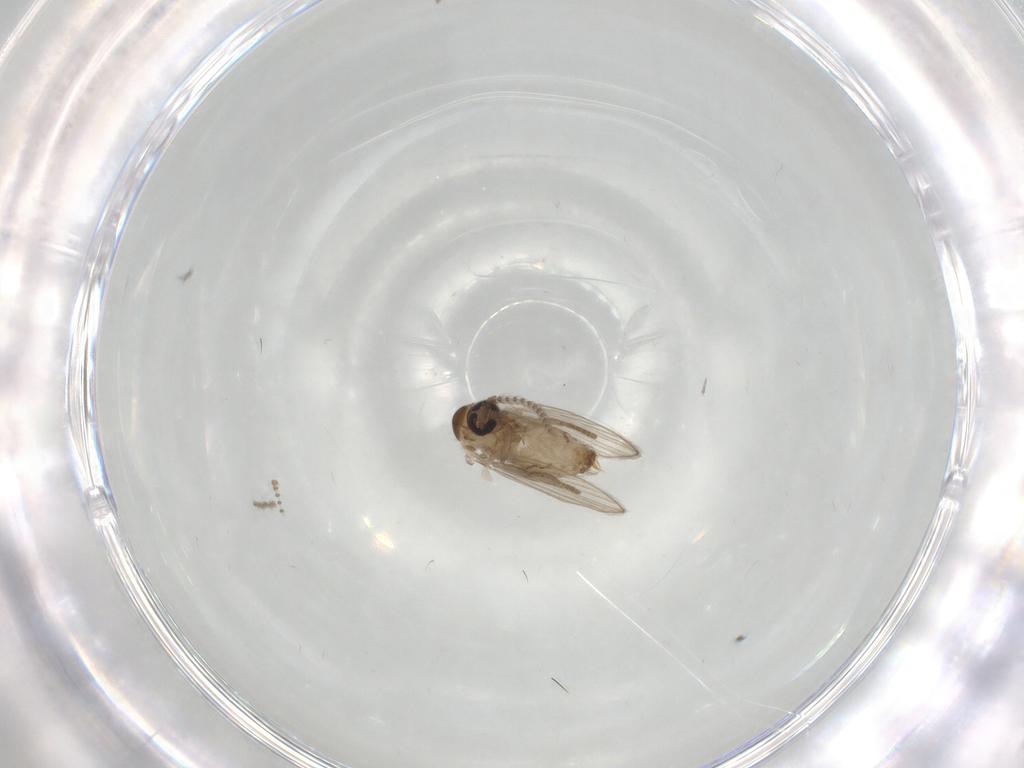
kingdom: Animalia
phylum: Arthropoda
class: Insecta
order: Diptera
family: Psychodidae
